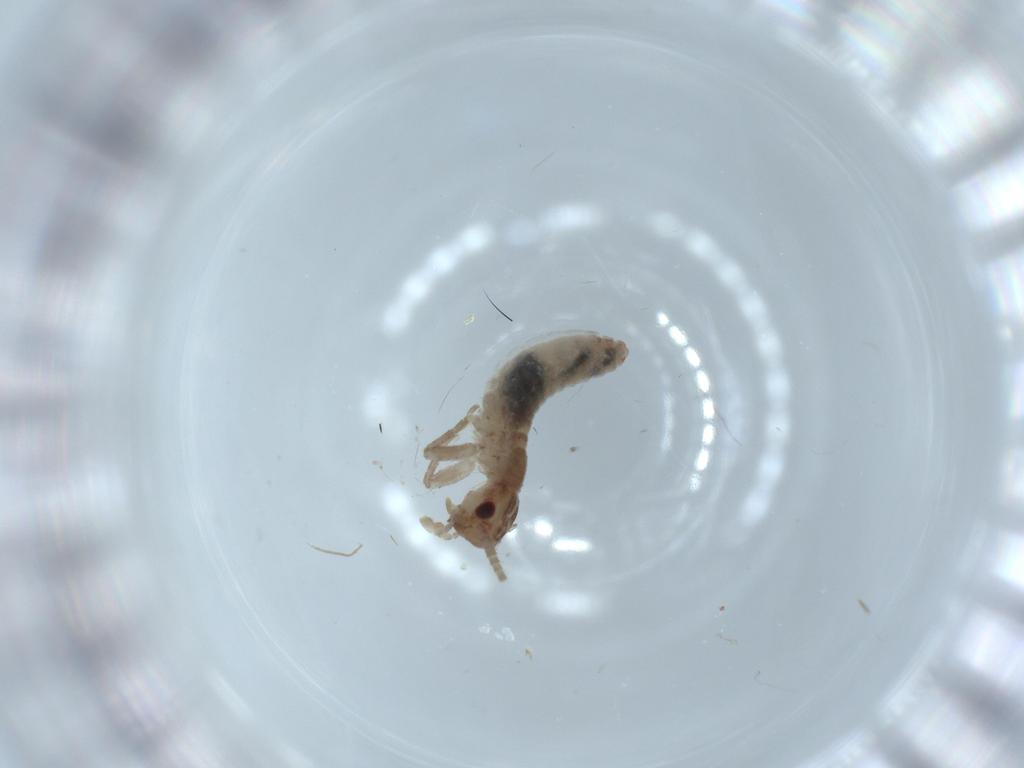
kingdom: Animalia
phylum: Arthropoda
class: Insecta
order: Orthoptera
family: Mogoplistidae
